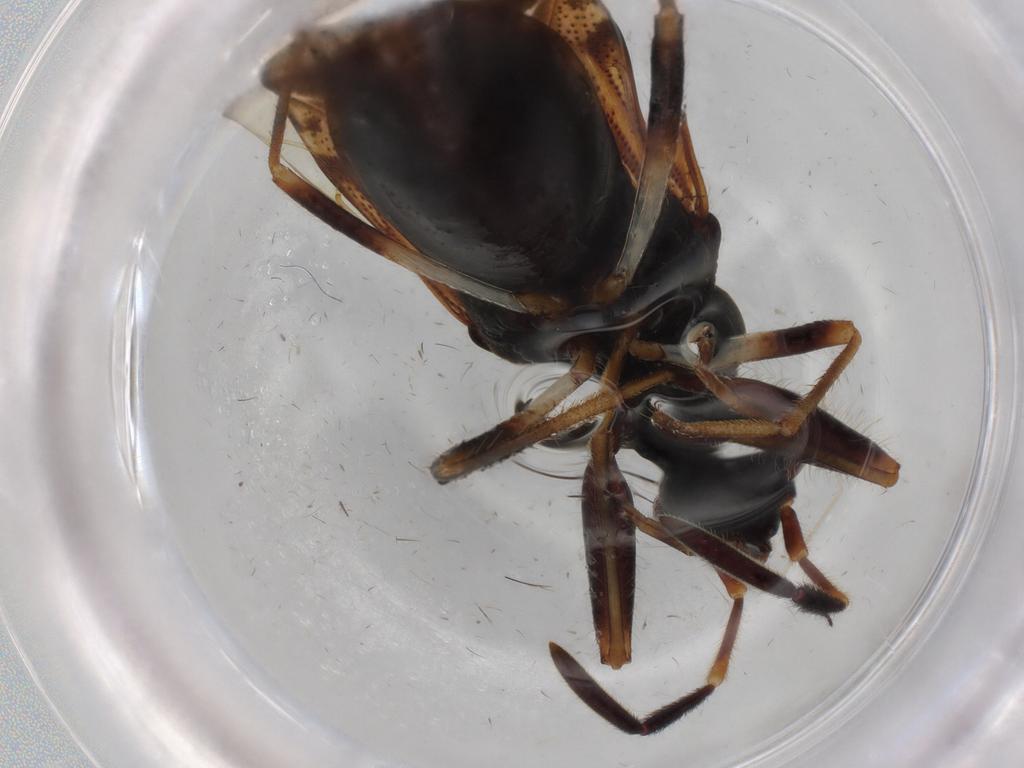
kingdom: Animalia
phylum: Arthropoda
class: Insecta
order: Hemiptera
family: Rhyparochromidae
